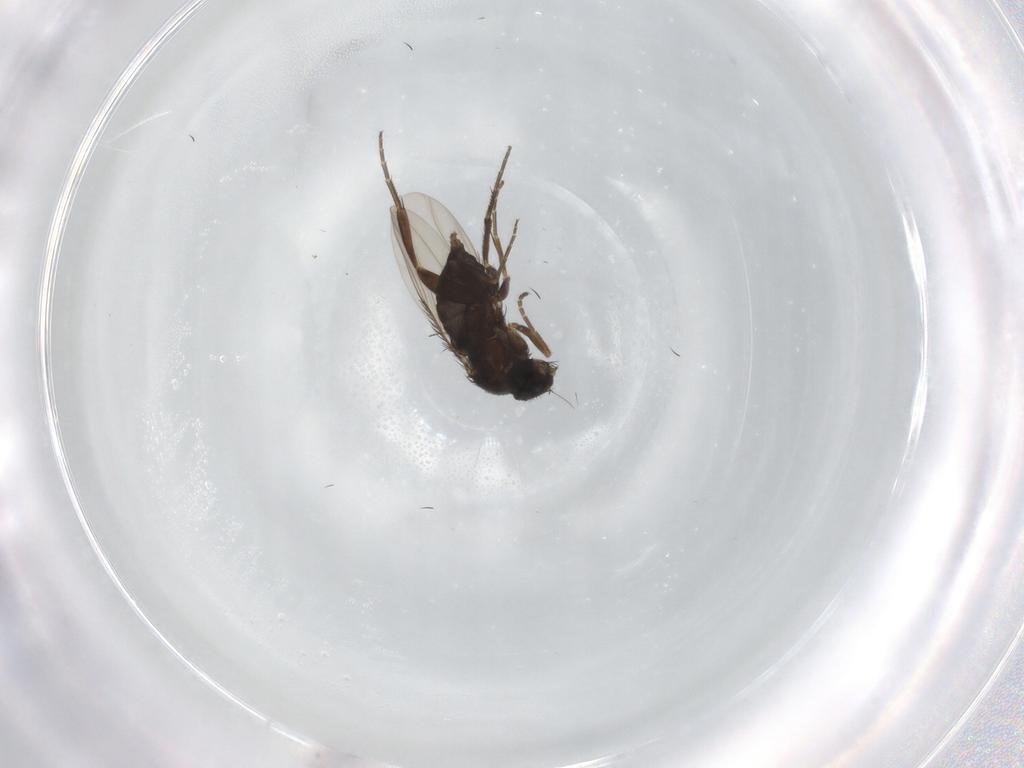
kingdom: Animalia
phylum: Arthropoda
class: Insecta
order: Diptera
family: Phoridae
